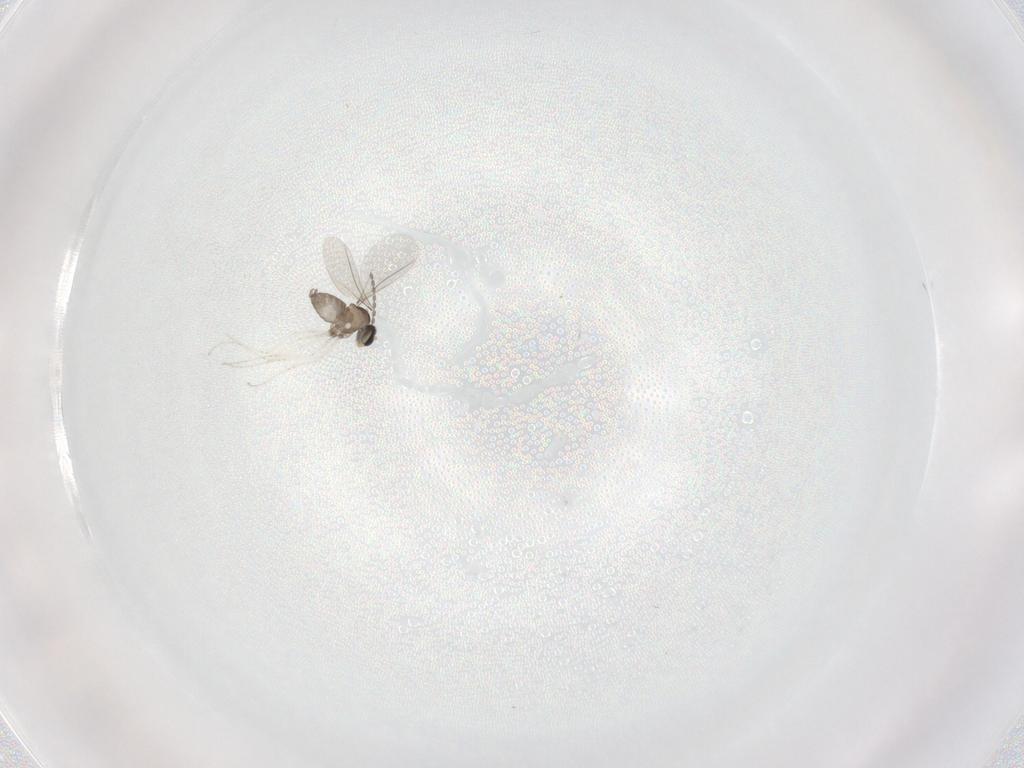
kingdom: Animalia
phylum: Arthropoda
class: Insecta
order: Diptera
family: Cecidomyiidae
